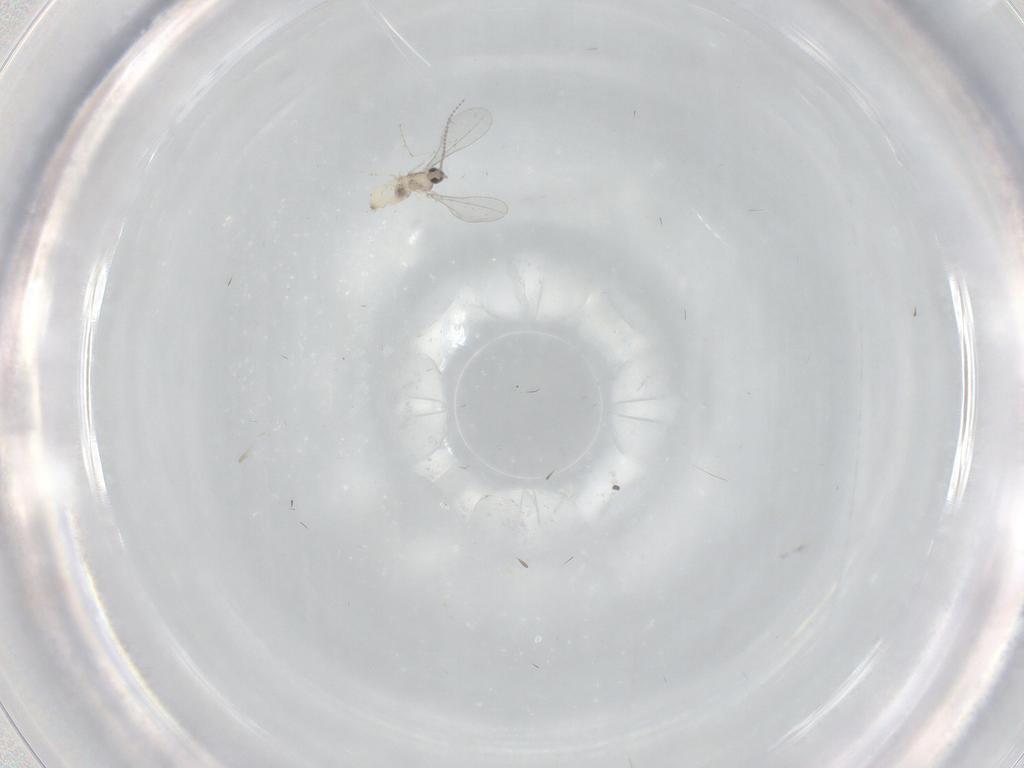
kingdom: Animalia
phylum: Arthropoda
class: Insecta
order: Diptera
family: Cecidomyiidae
